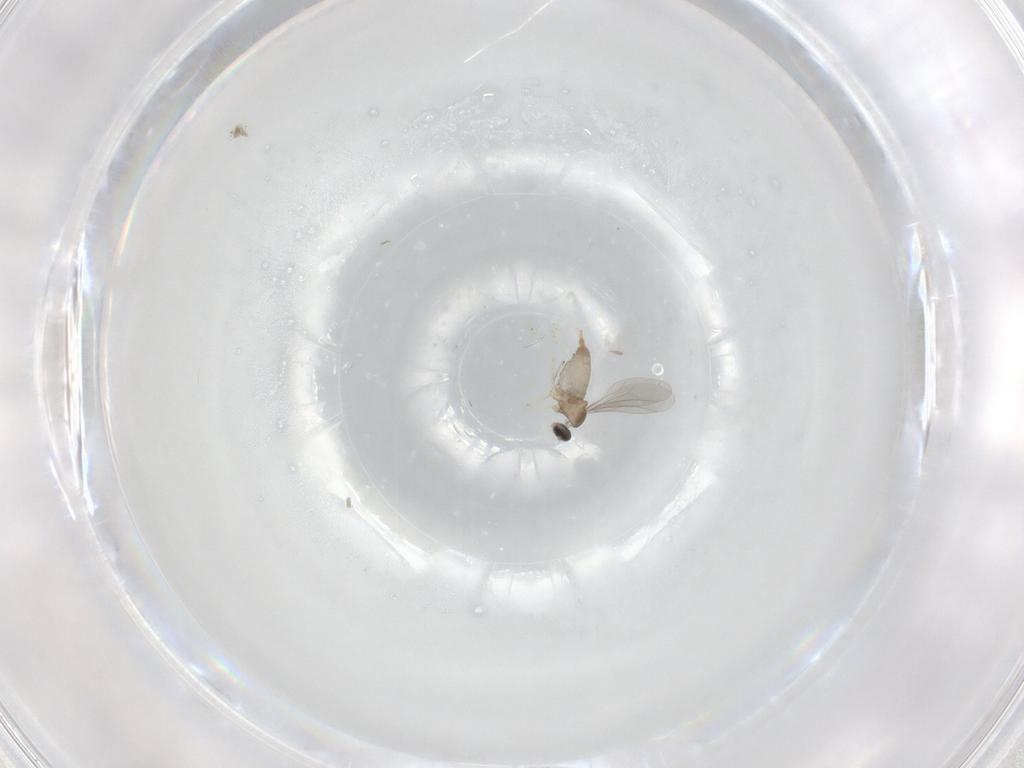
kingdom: Animalia
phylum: Arthropoda
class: Insecta
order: Diptera
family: Cecidomyiidae
